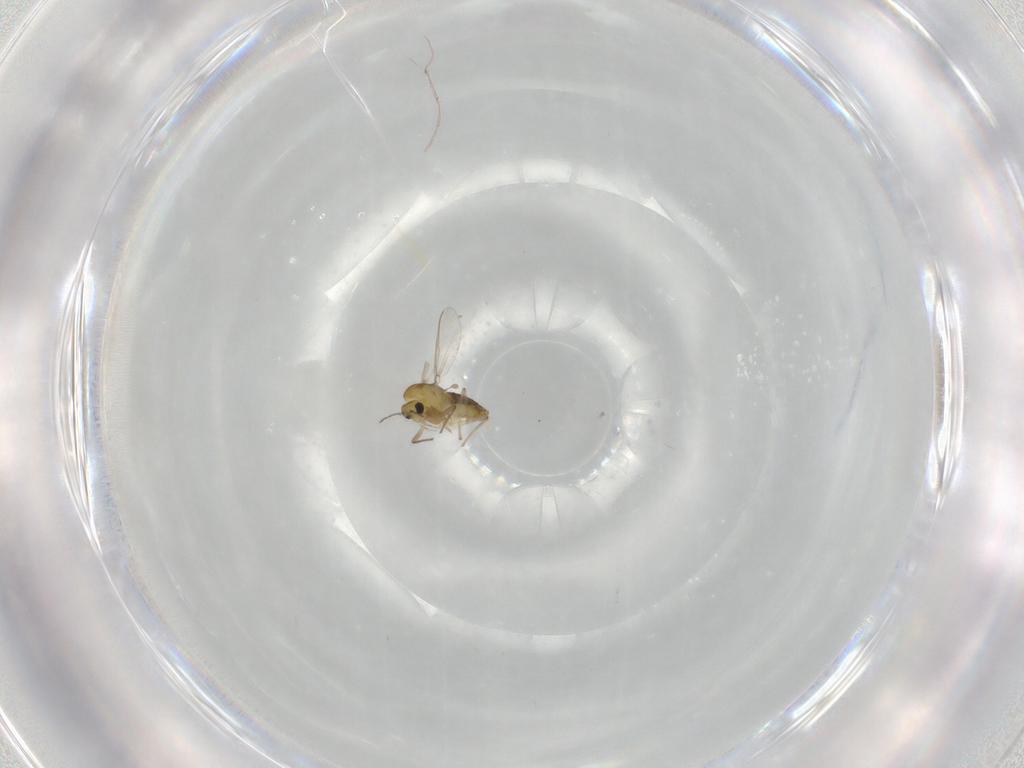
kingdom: Animalia
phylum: Arthropoda
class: Insecta
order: Diptera
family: Chironomidae
